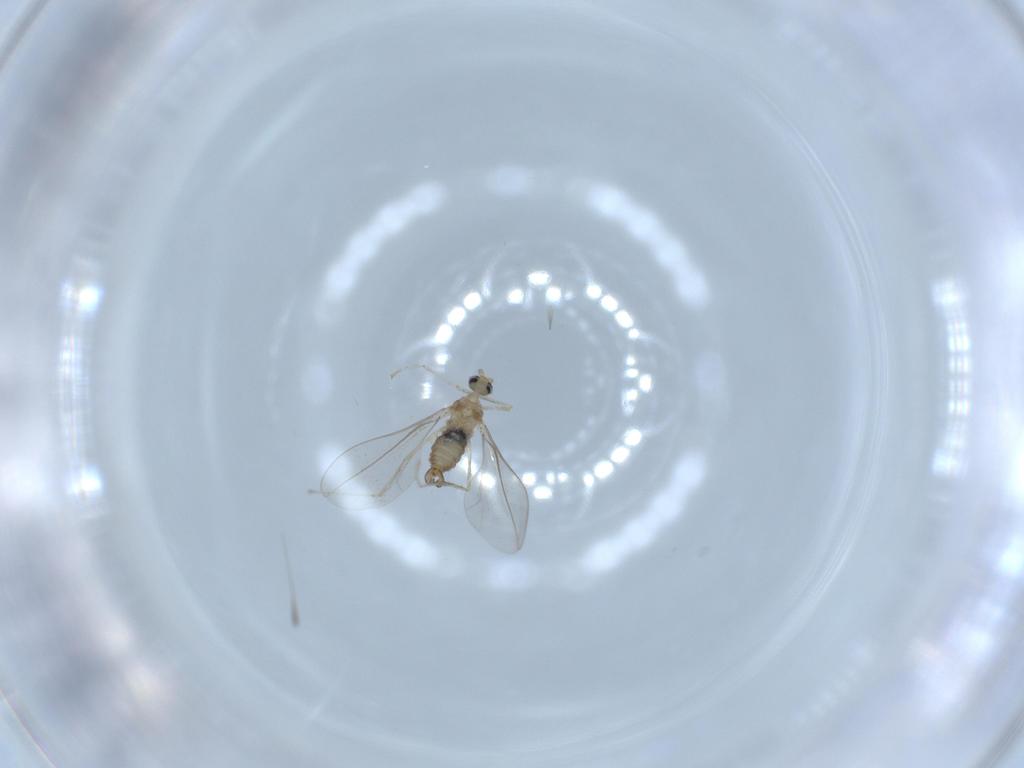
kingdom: Animalia
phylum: Arthropoda
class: Insecta
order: Diptera
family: Cecidomyiidae
